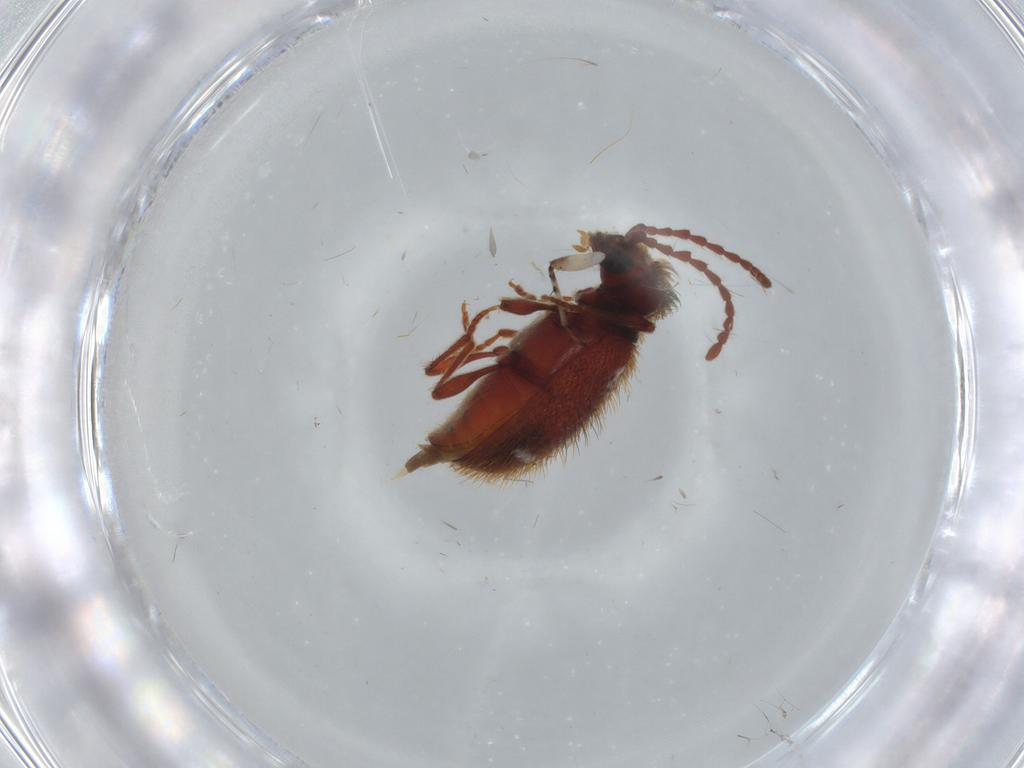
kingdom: Animalia
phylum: Arthropoda
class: Insecta
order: Coleoptera
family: Ptinidae
